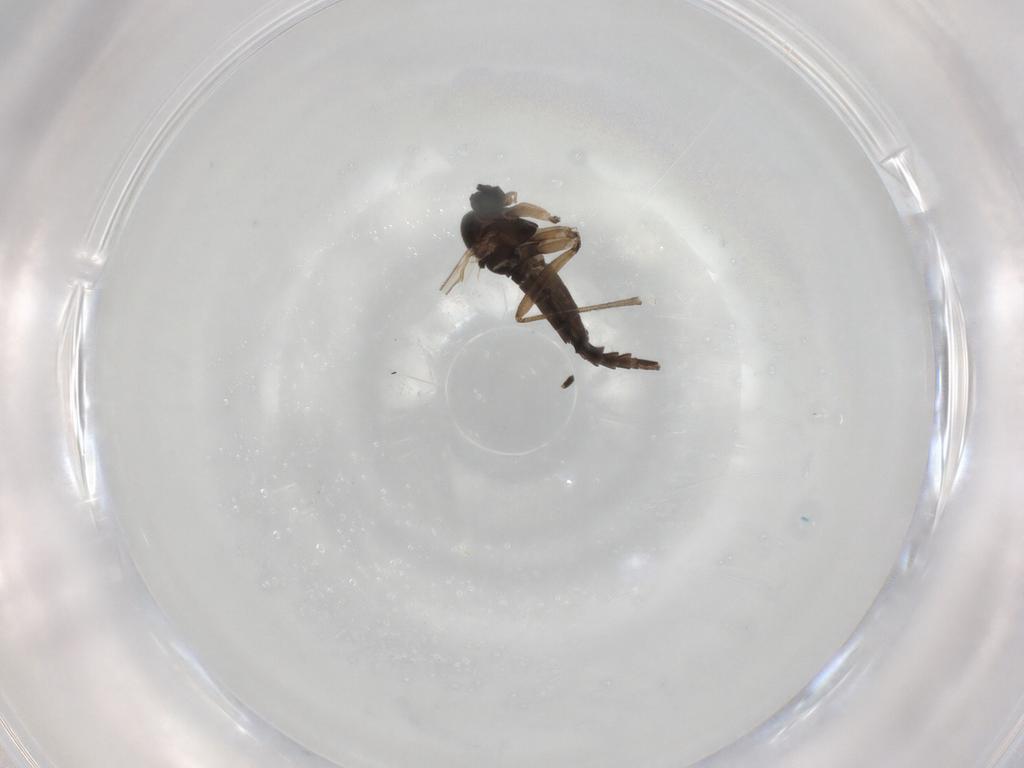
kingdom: Animalia
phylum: Arthropoda
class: Insecta
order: Diptera
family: Sciaridae
